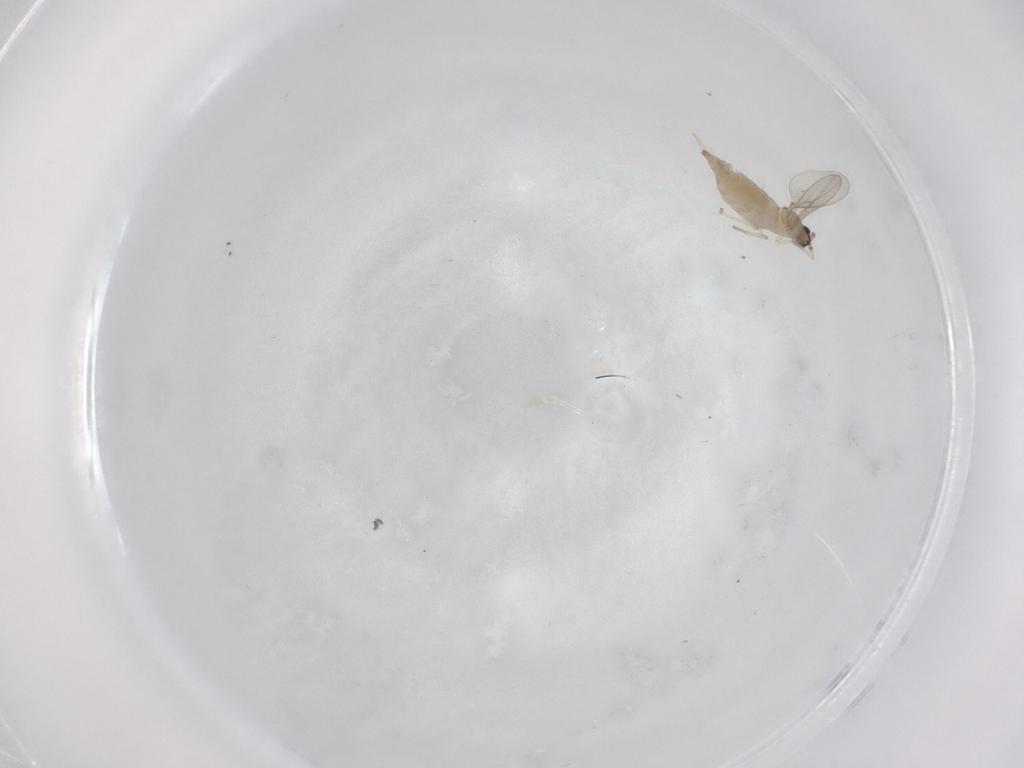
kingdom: Animalia
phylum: Arthropoda
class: Insecta
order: Diptera
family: Cecidomyiidae
